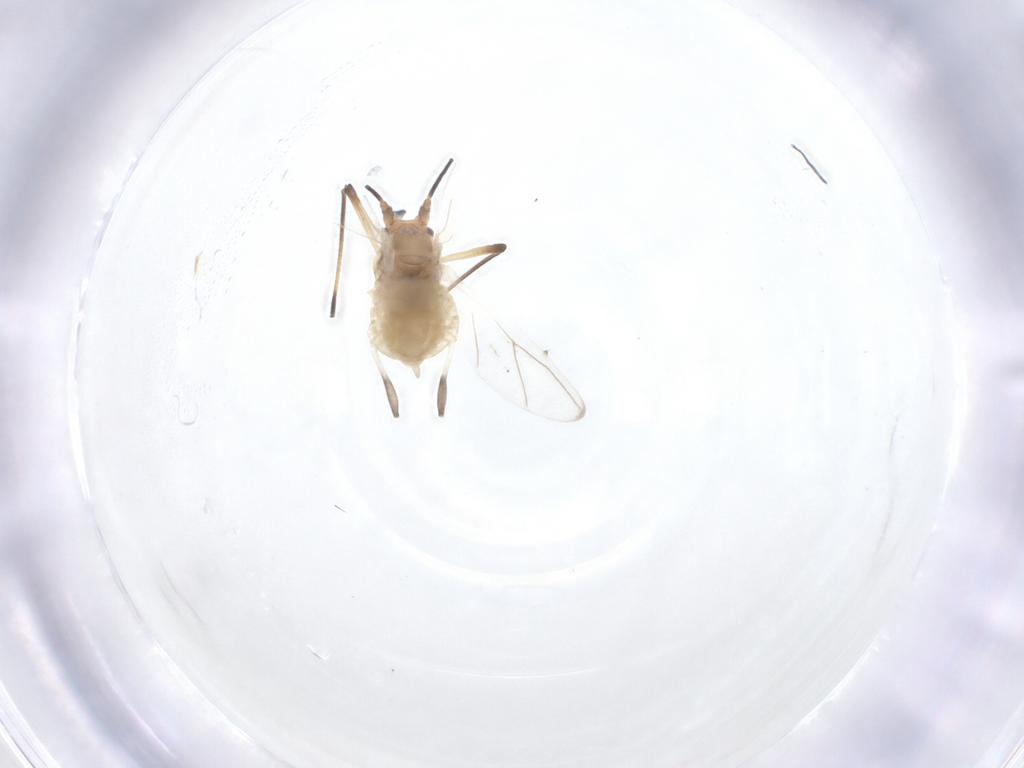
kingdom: Animalia
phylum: Arthropoda
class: Insecta
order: Hemiptera
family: Aphididae
